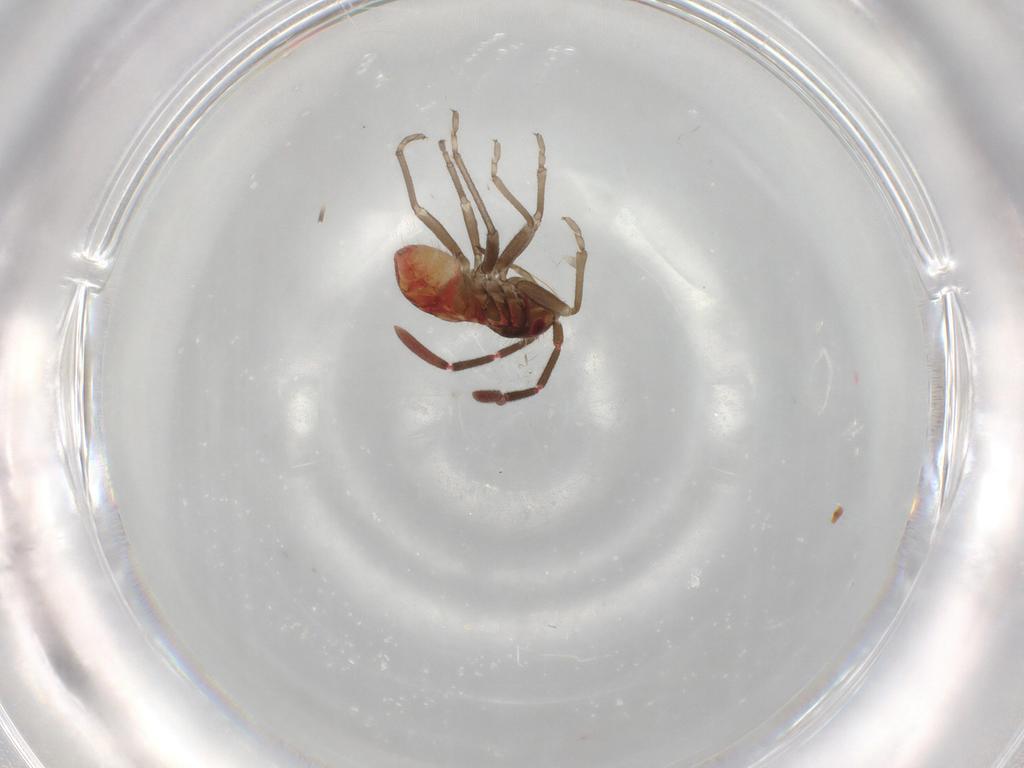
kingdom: Animalia
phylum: Arthropoda
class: Insecta
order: Hemiptera
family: Rhyparochromidae
